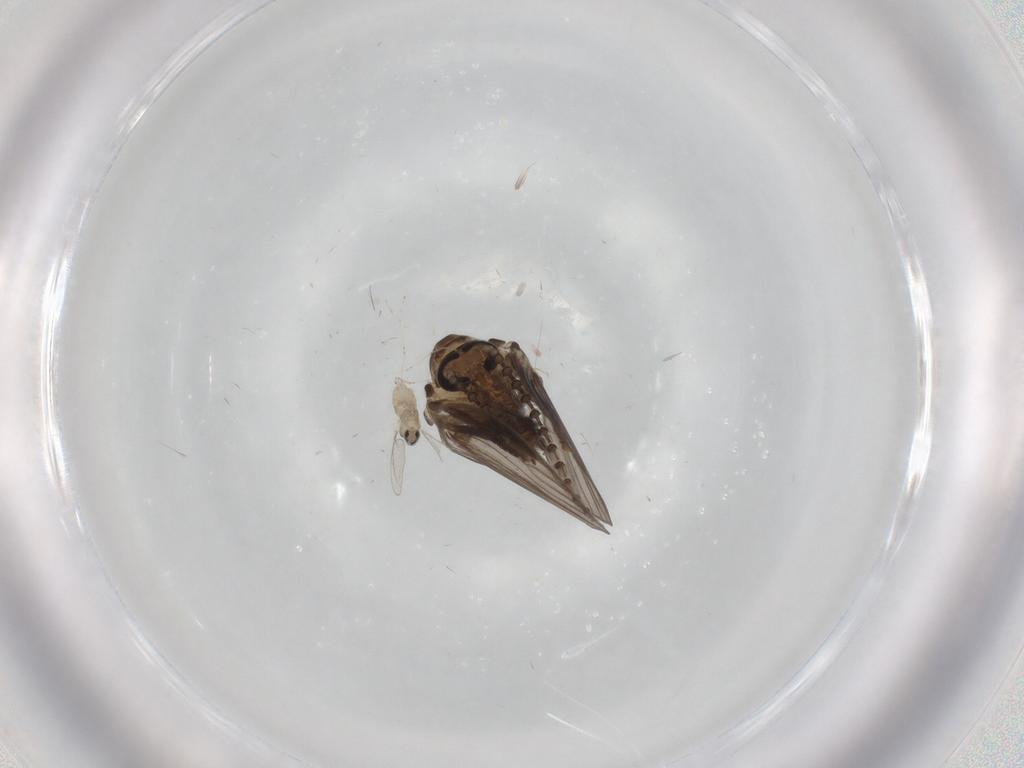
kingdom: Animalia
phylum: Arthropoda
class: Insecta
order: Diptera
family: Psychodidae
